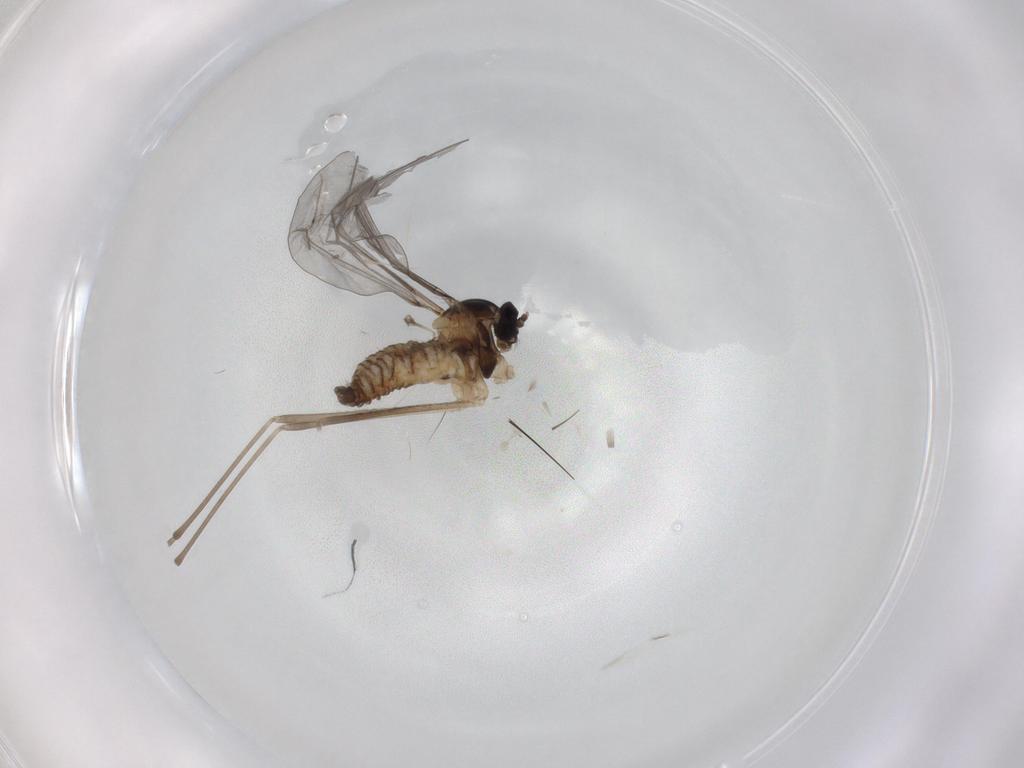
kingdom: Animalia
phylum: Arthropoda
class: Insecta
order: Diptera
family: Cecidomyiidae
